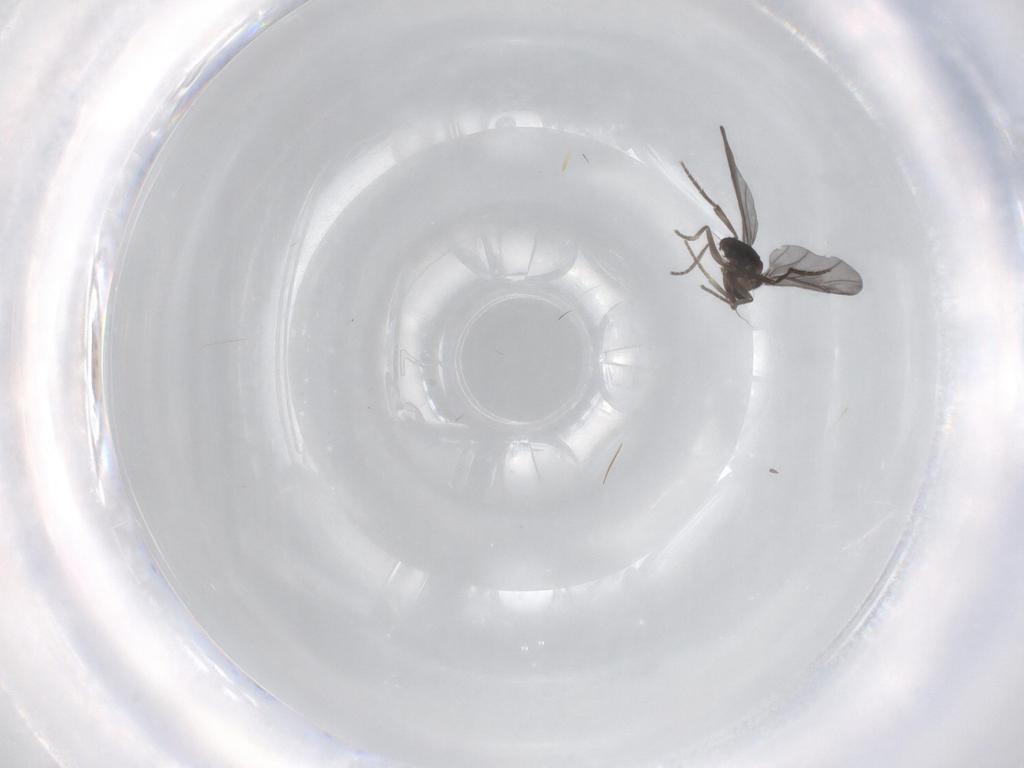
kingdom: Animalia
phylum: Arthropoda
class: Insecta
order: Diptera
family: Phoridae
